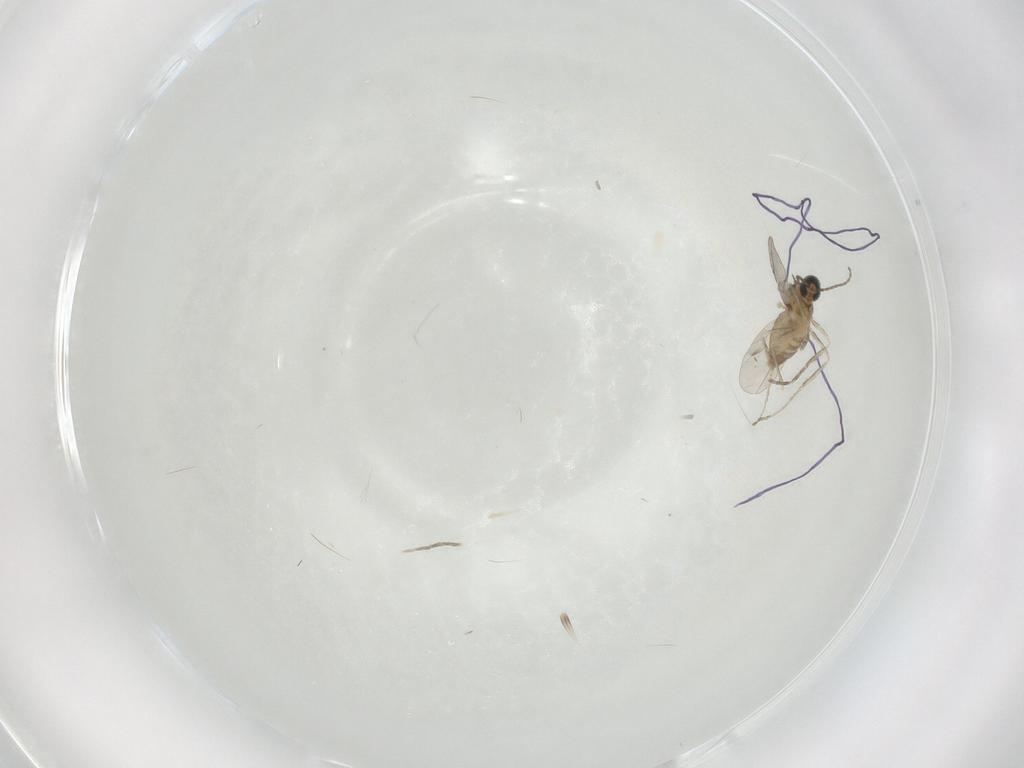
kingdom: Animalia
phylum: Arthropoda
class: Insecta
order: Diptera
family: Cecidomyiidae
